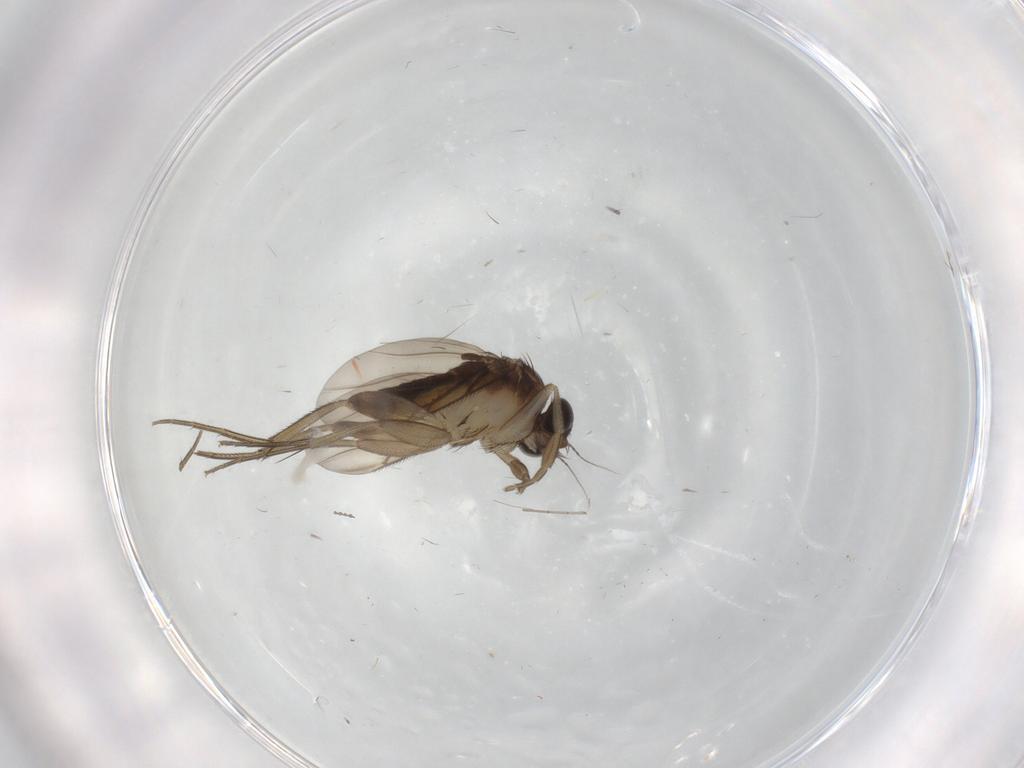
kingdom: Animalia
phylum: Arthropoda
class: Insecta
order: Diptera
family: Phoridae
